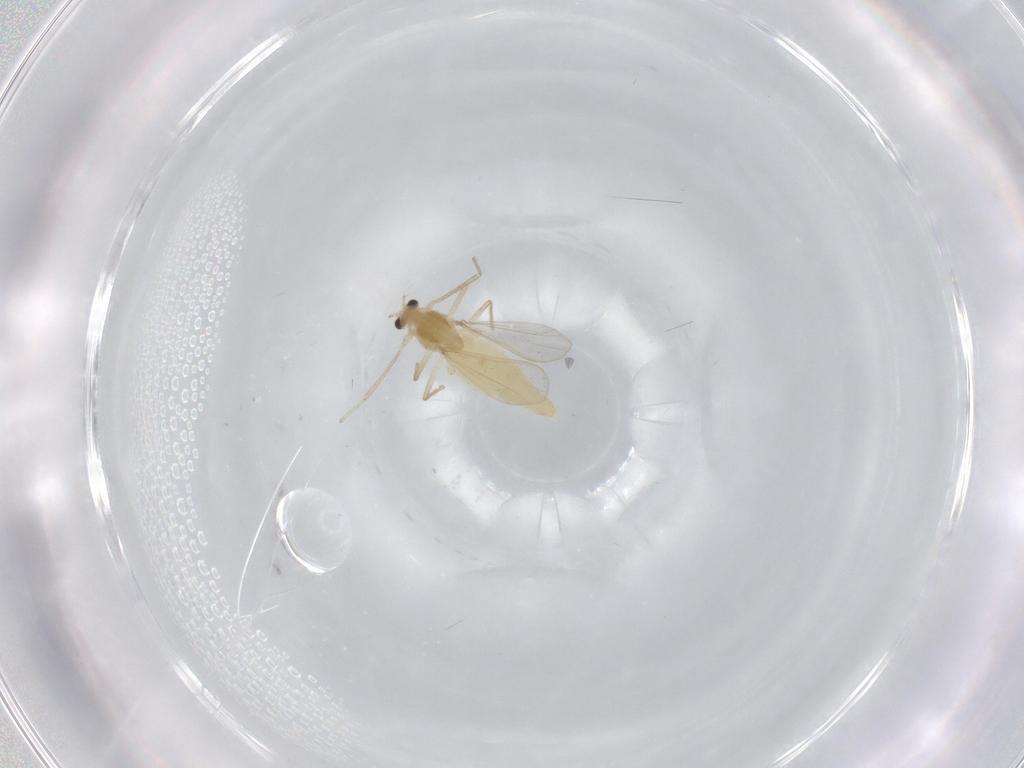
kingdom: Animalia
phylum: Arthropoda
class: Insecta
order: Diptera
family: Chironomidae
